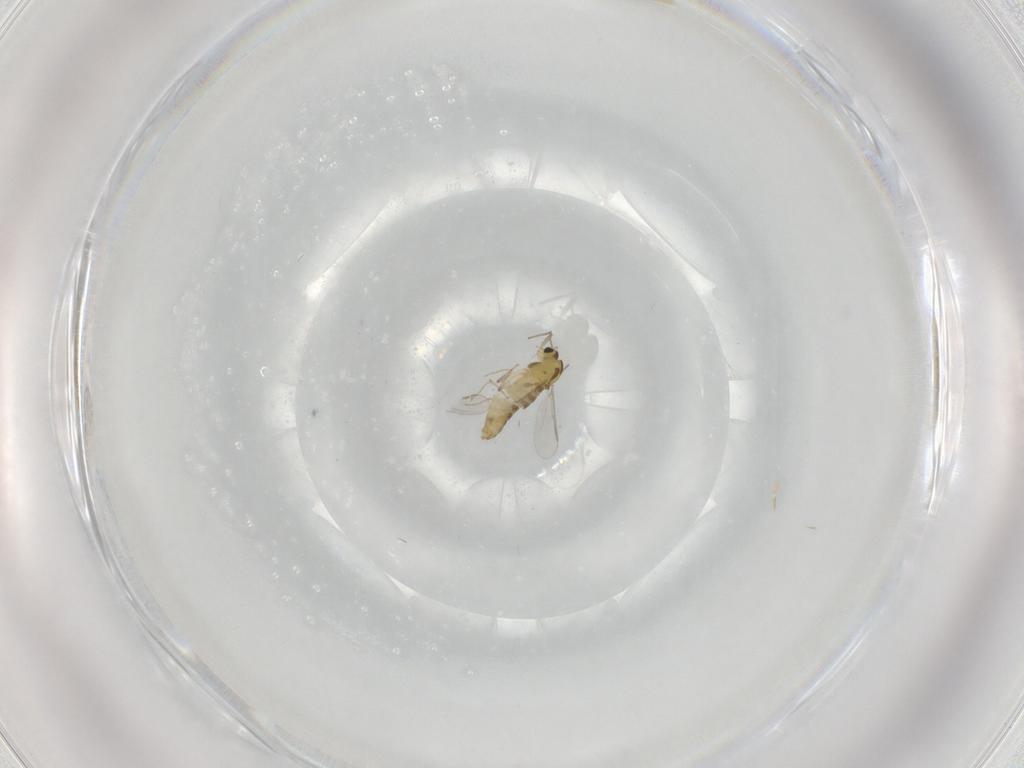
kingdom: Animalia
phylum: Arthropoda
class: Insecta
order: Diptera
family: Chironomidae
